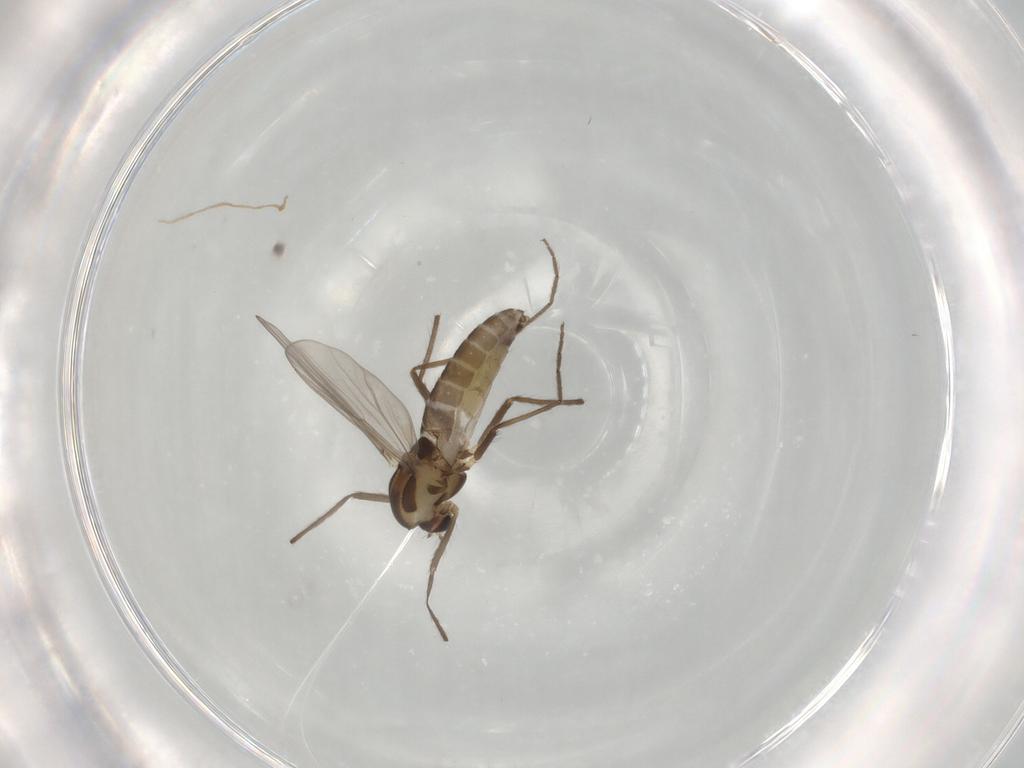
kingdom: Animalia
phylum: Arthropoda
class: Insecta
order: Diptera
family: Chironomidae
